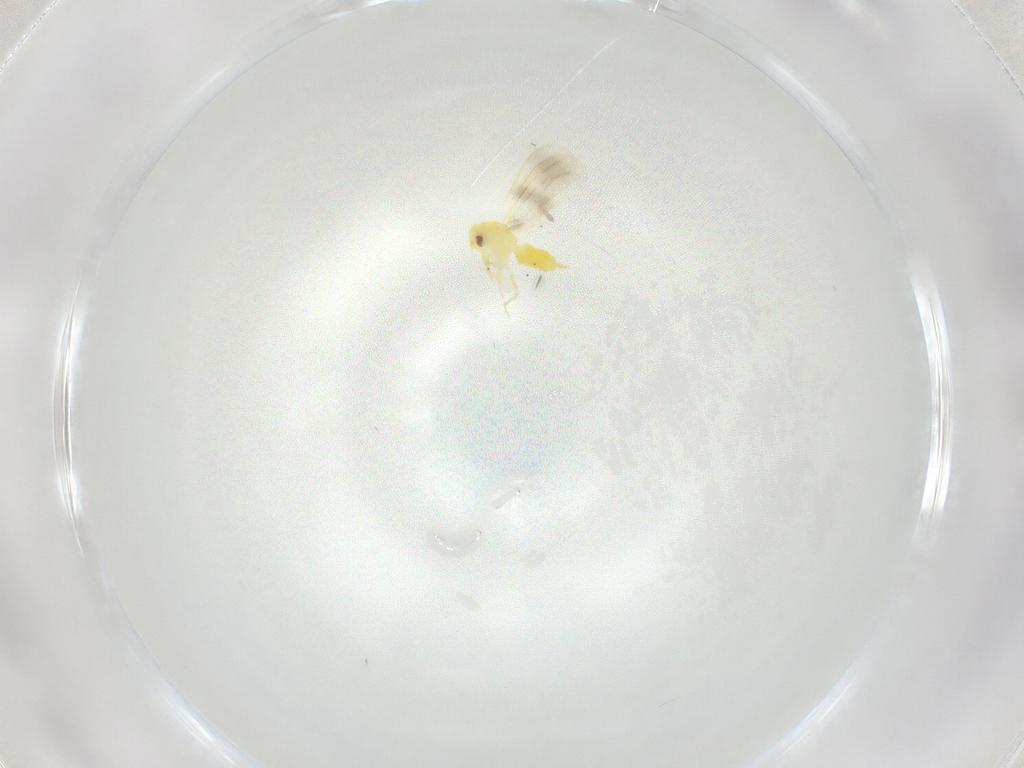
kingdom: Animalia
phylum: Arthropoda
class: Insecta
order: Hemiptera
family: Aleyrodidae
